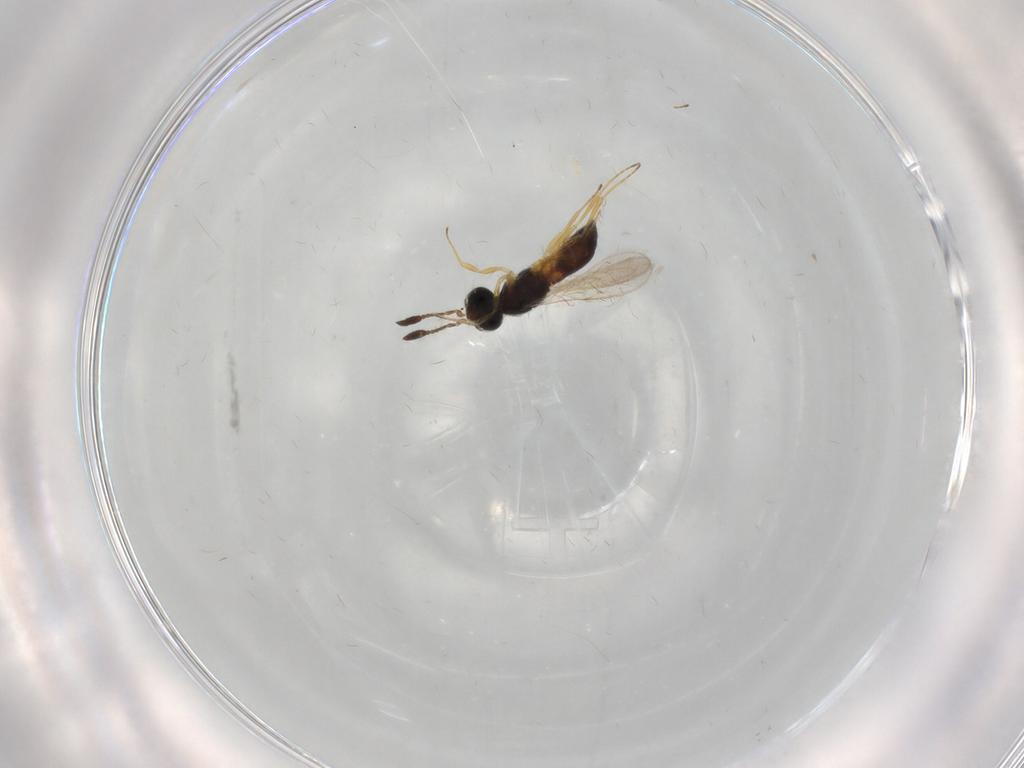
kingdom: Animalia
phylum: Arthropoda
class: Insecta
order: Hymenoptera
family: Scelionidae
